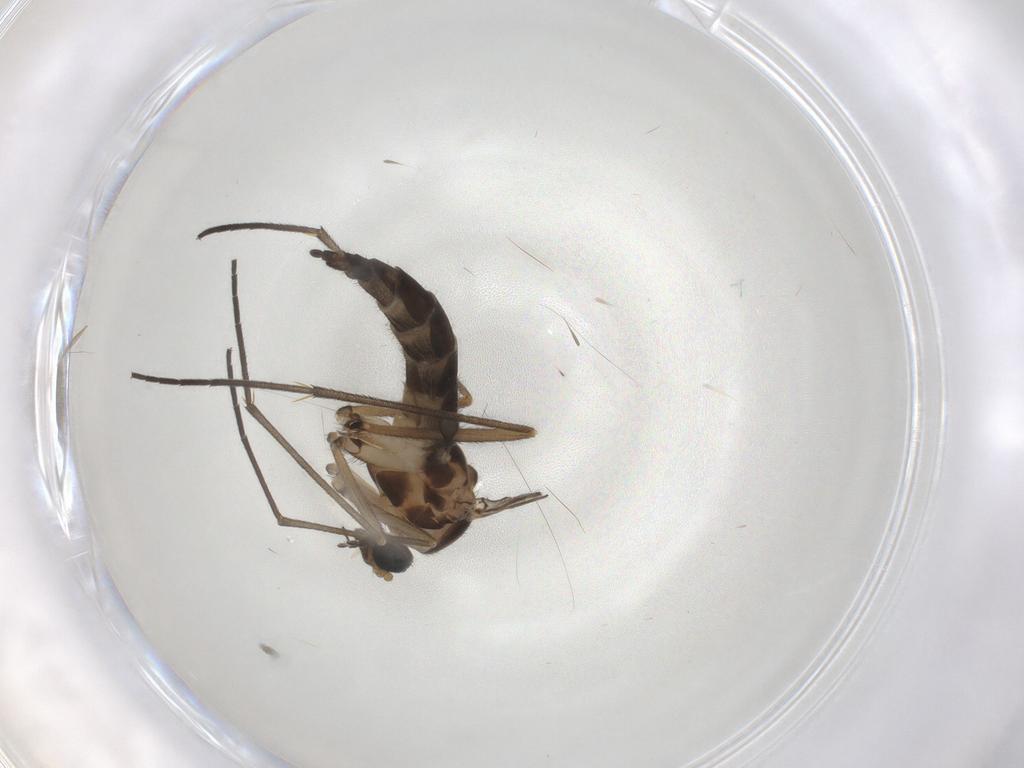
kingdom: Animalia
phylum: Arthropoda
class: Insecta
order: Diptera
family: Sciaridae
